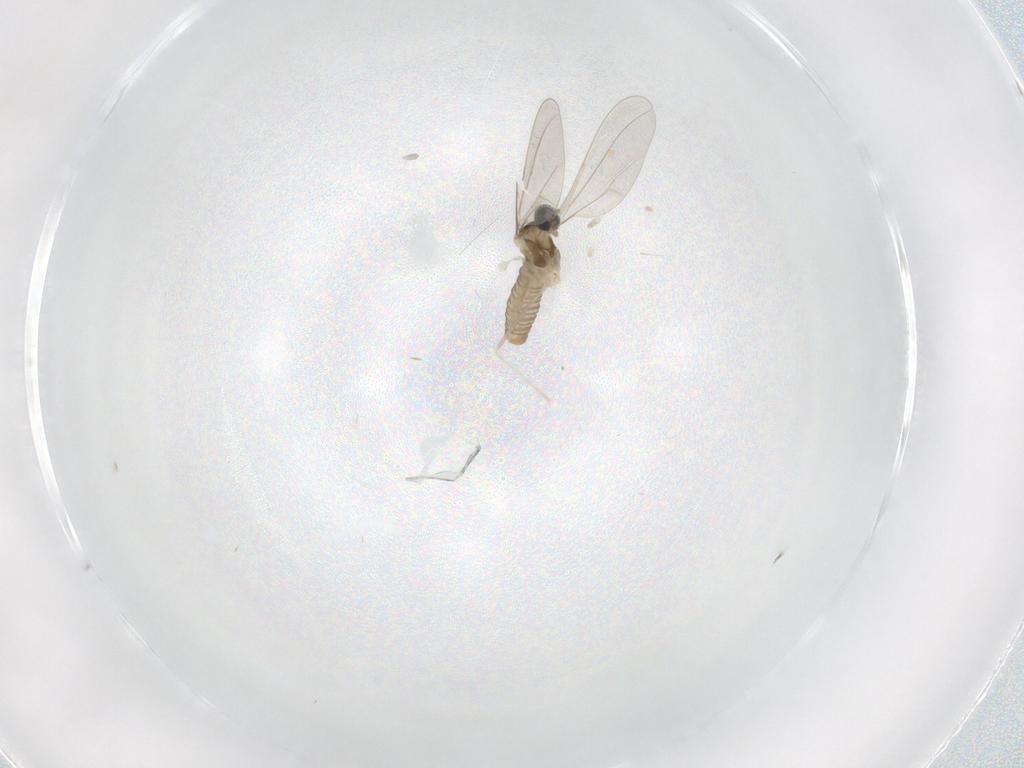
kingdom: Animalia
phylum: Arthropoda
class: Insecta
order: Diptera
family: Cecidomyiidae
